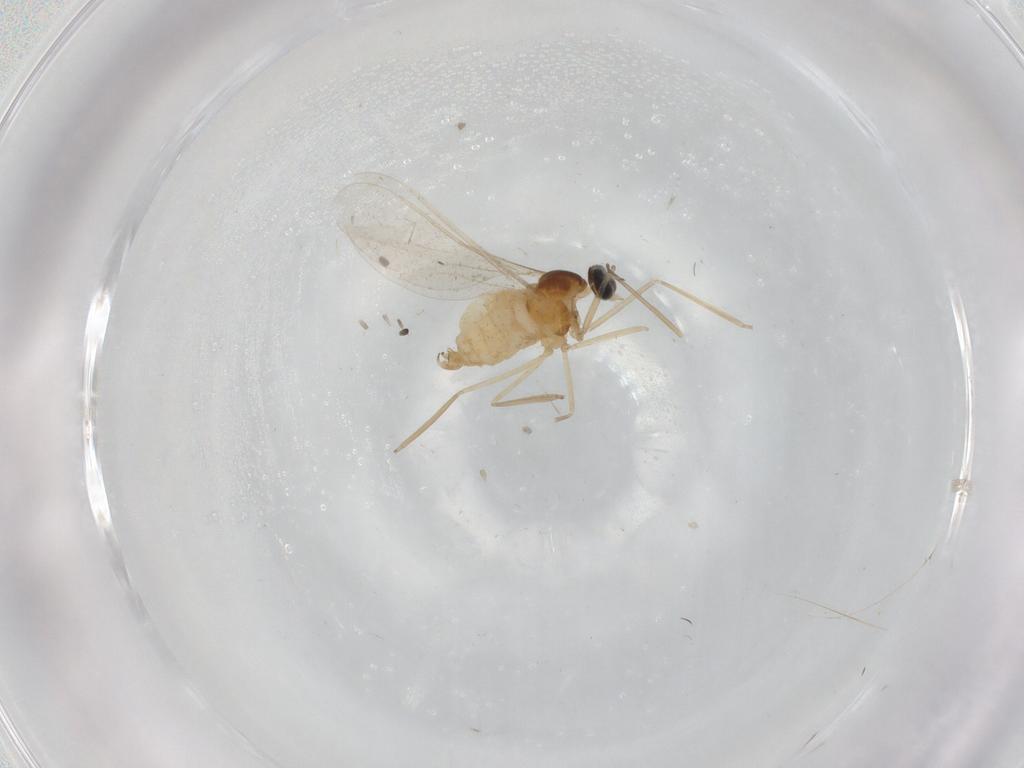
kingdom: Animalia
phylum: Arthropoda
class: Insecta
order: Diptera
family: Cecidomyiidae
